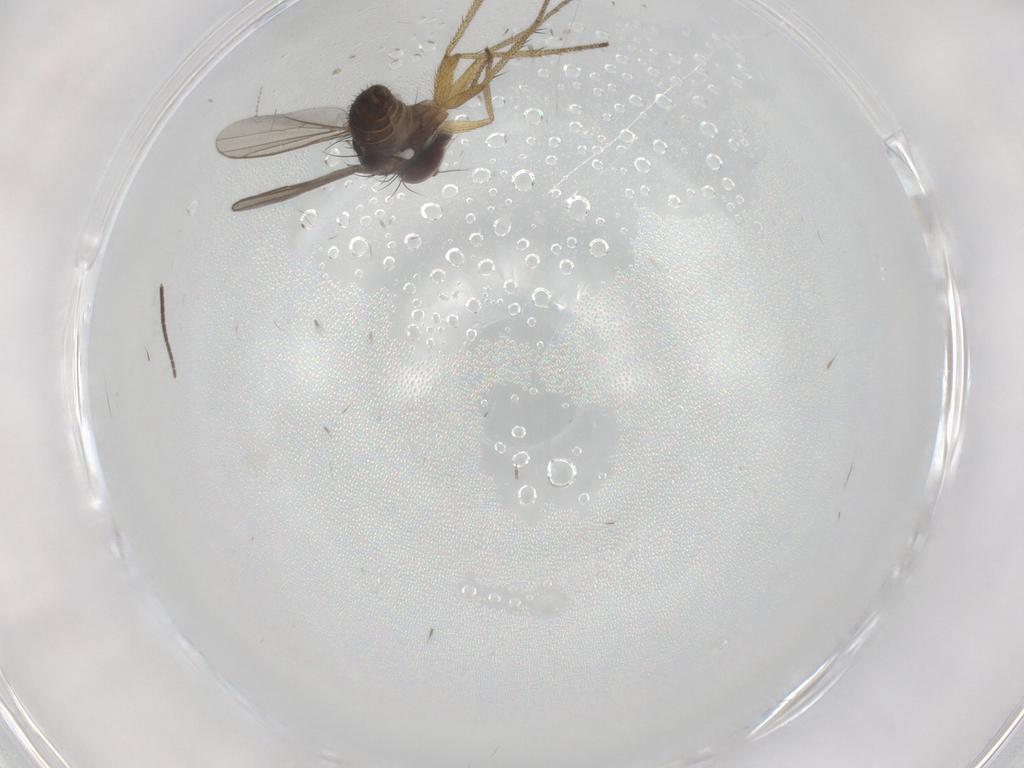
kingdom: Animalia
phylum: Arthropoda
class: Insecta
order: Diptera
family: Sciaridae
